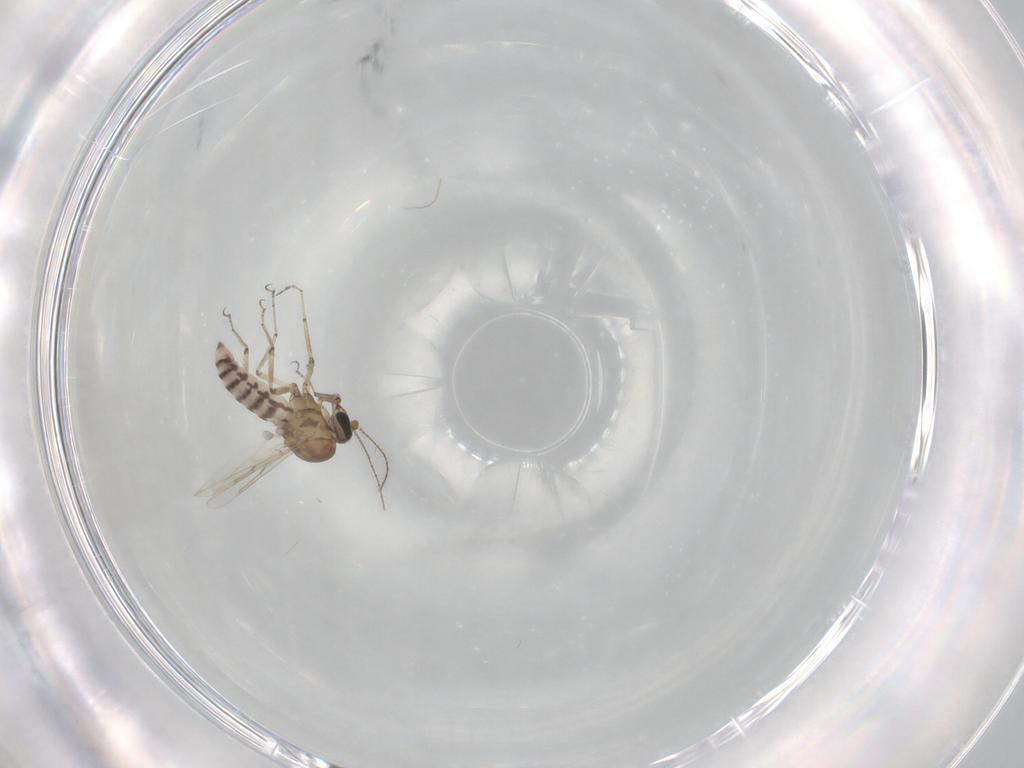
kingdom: Animalia
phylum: Arthropoda
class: Insecta
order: Diptera
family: Ceratopogonidae
